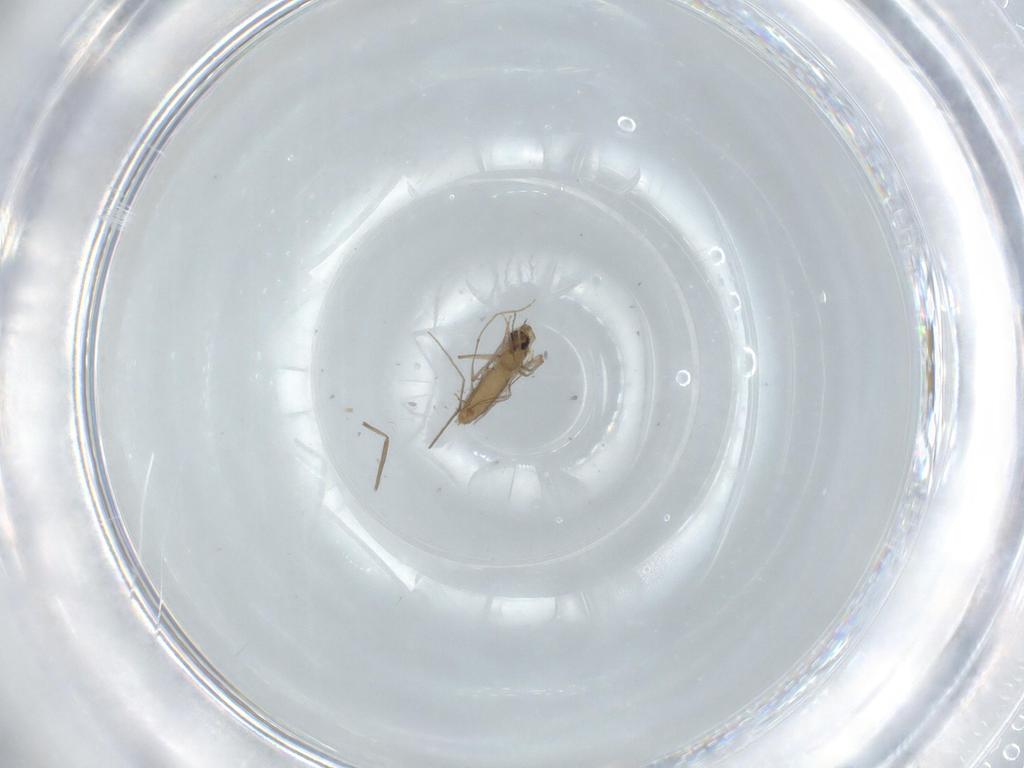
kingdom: Animalia
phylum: Arthropoda
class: Insecta
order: Diptera
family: Chironomidae
